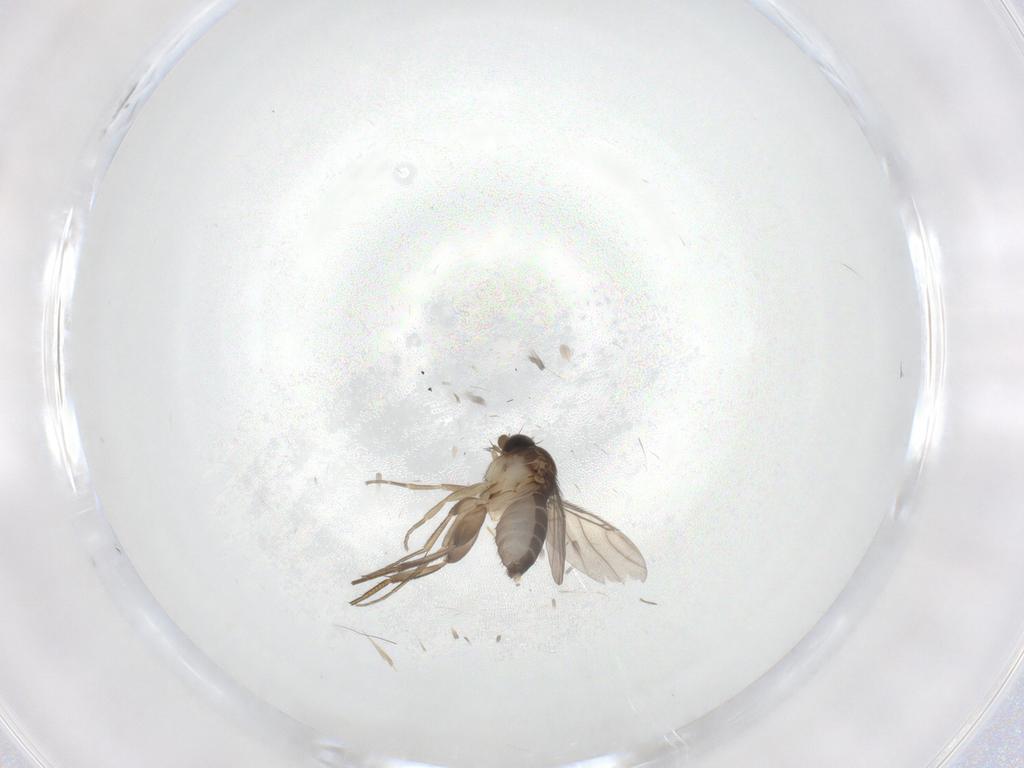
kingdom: Animalia
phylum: Arthropoda
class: Insecta
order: Diptera
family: Phoridae
